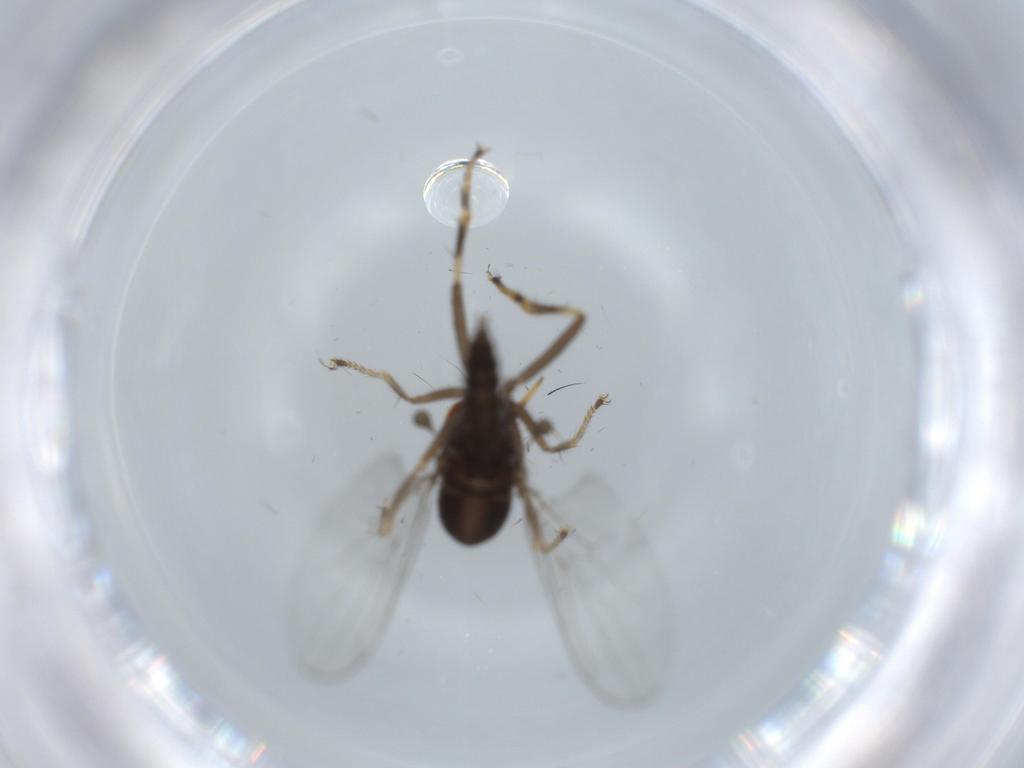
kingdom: Animalia
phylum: Arthropoda
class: Insecta
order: Diptera
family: Hybotidae
